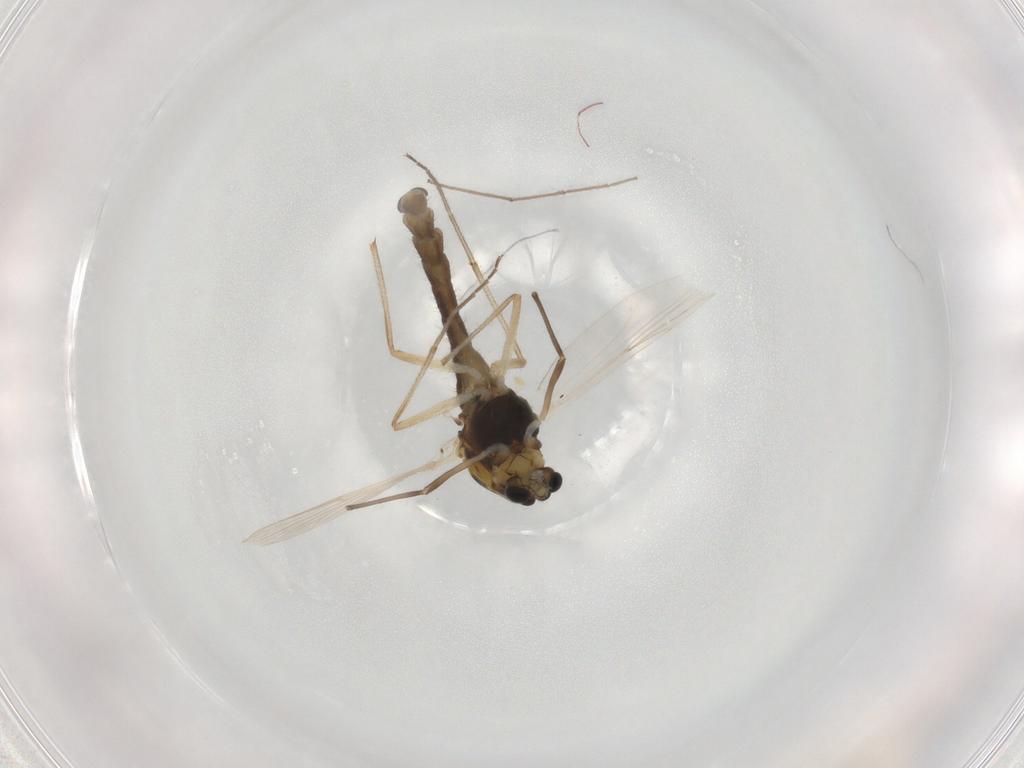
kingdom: Animalia
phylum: Arthropoda
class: Insecta
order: Diptera
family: Chironomidae
